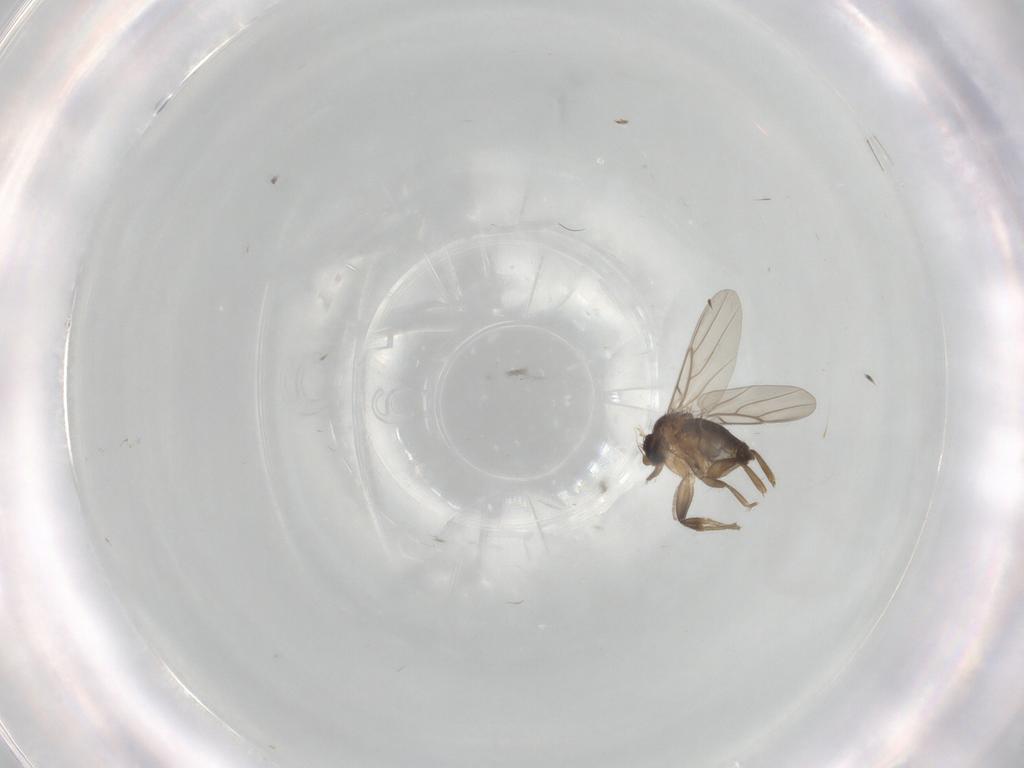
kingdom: Animalia
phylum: Arthropoda
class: Insecta
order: Diptera
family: Phoridae
